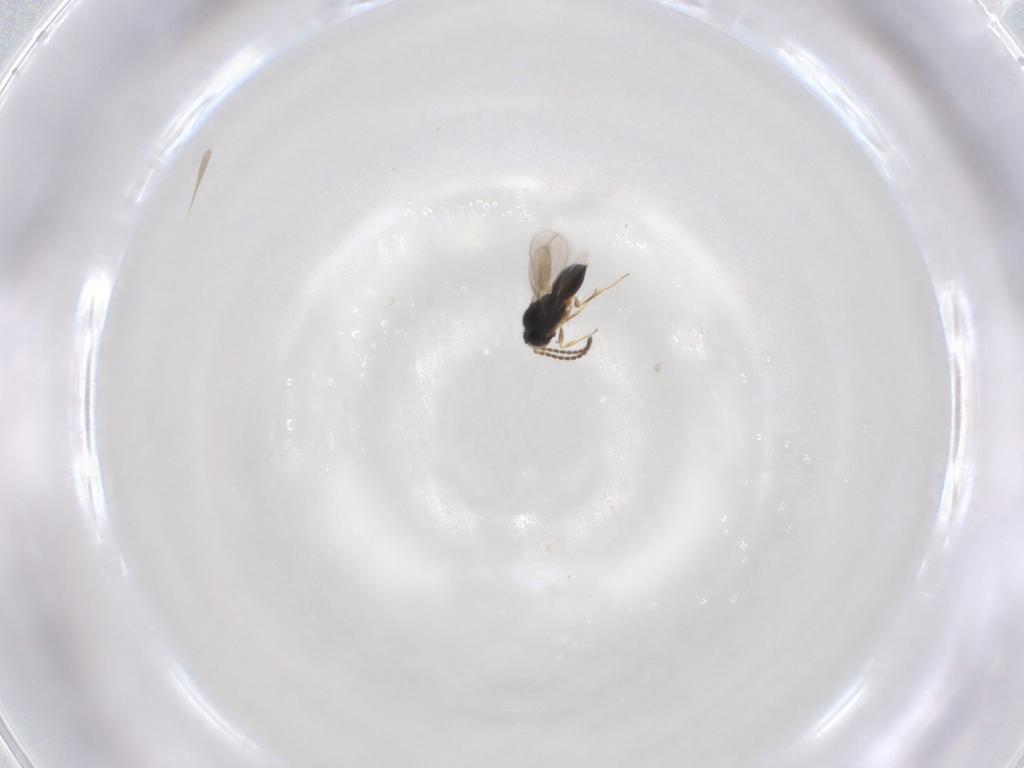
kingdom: Animalia
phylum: Arthropoda
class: Insecta
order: Hymenoptera
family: Scelionidae
